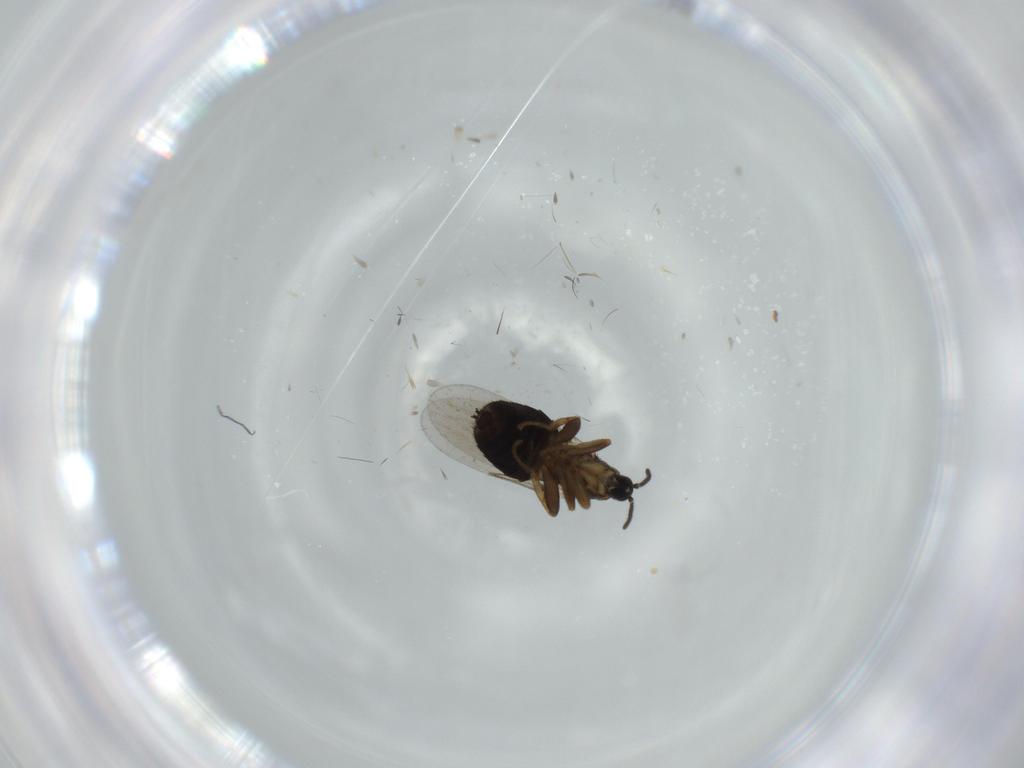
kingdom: Animalia
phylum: Arthropoda
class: Insecta
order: Diptera
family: Scatopsidae
